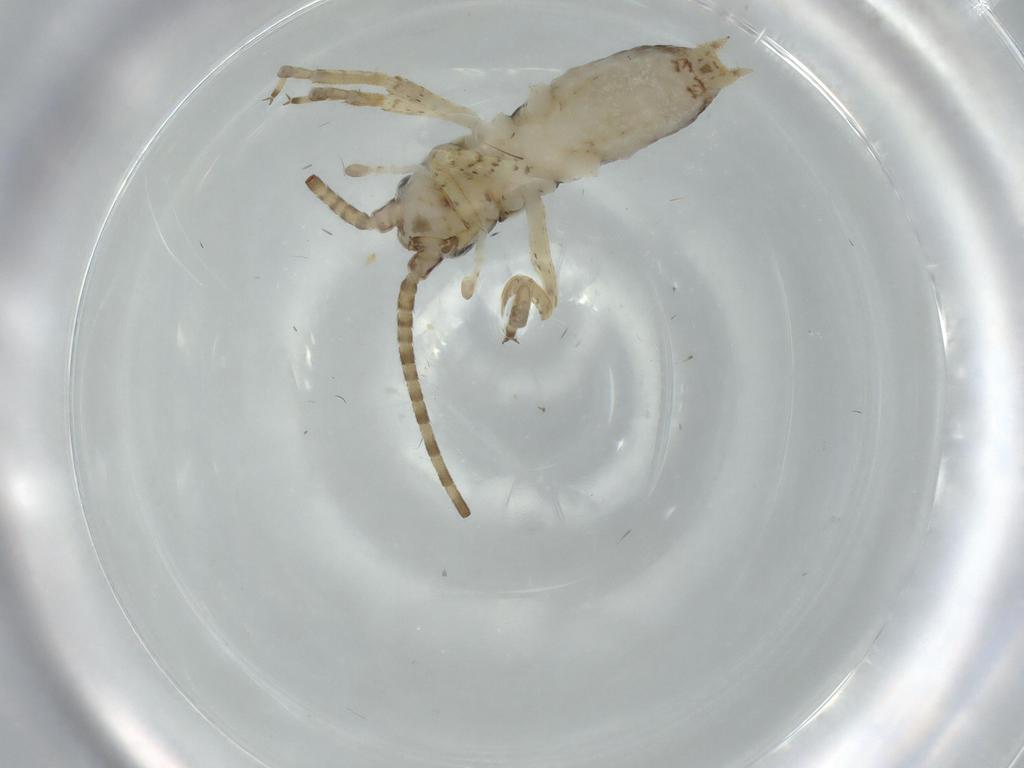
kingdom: Animalia
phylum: Arthropoda
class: Insecta
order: Orthoptera
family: Gryllidae
